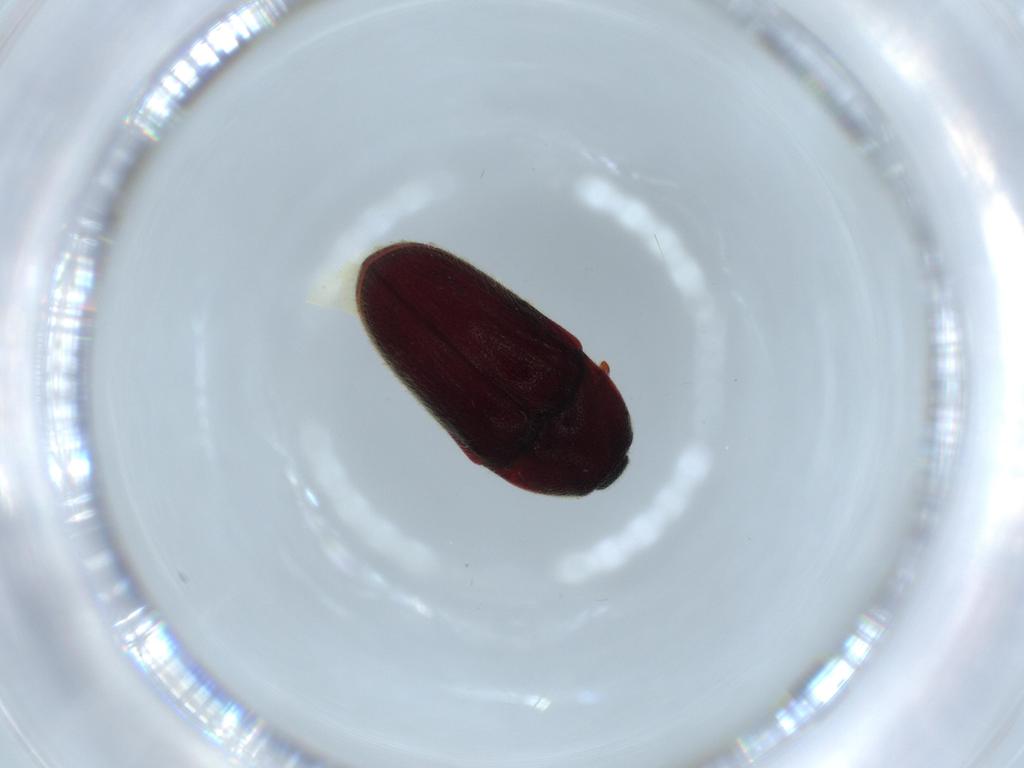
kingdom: Animalia
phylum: Arthropoda
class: Insecta
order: Coleoptera
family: Throscidae
